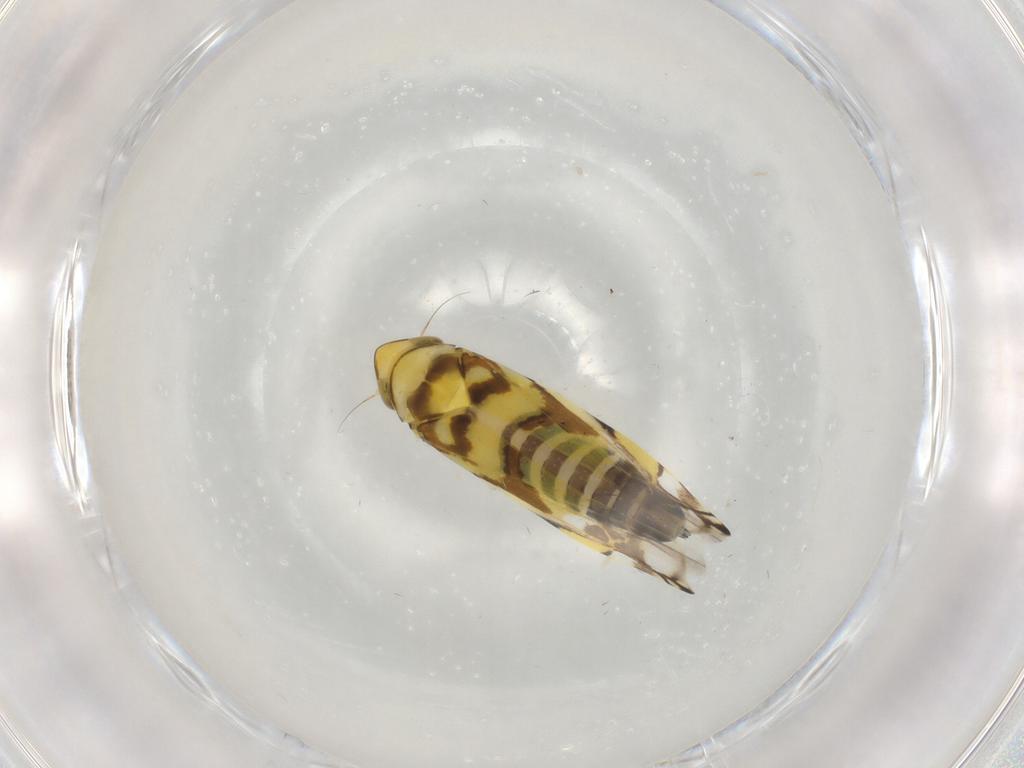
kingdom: Animalia
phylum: Arthropoda
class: Insecta
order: Hemiptera
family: Cicadellidae
